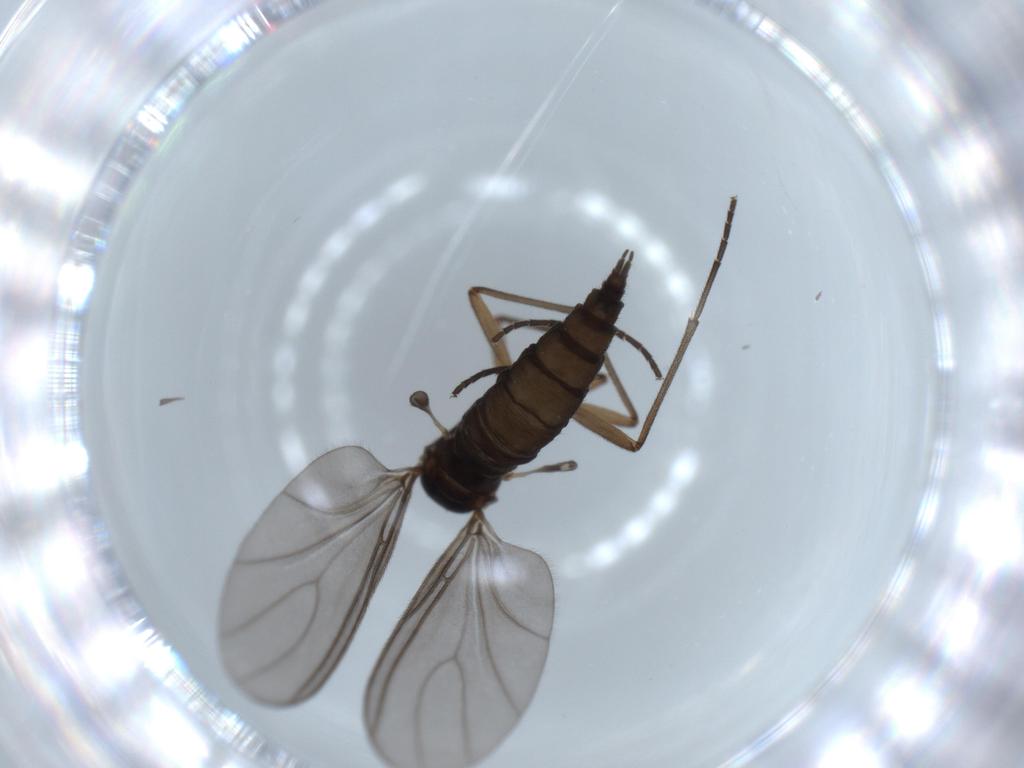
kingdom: Animalia
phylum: Arthropoda
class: Insecta
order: Diptera
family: Sciaridae
